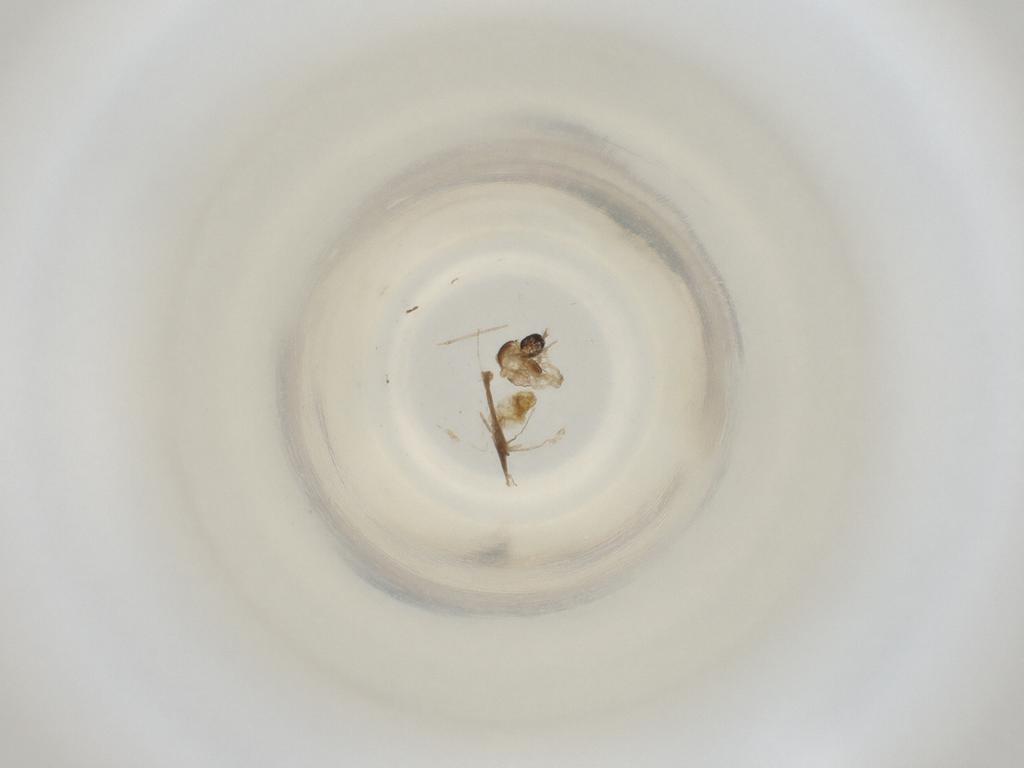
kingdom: Animalia
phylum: Arthropoda
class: Insecta
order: Diptera
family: Cecidomyiidae
